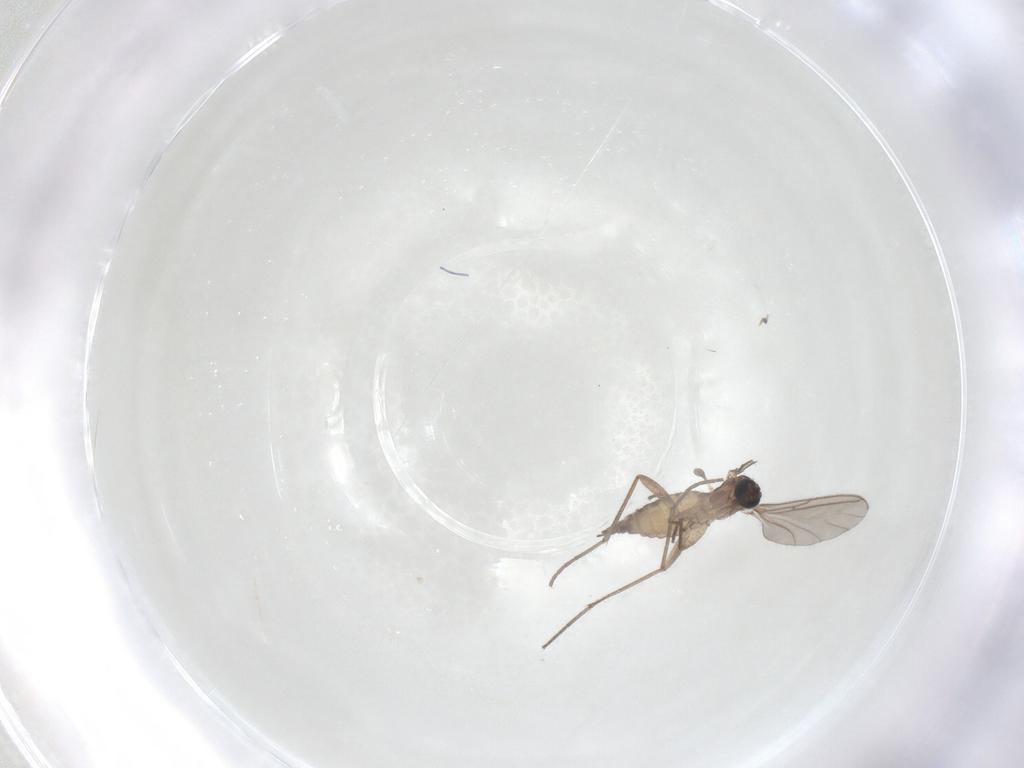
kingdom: Animalia
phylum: Arthropoda
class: Insecta
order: Diptera
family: Sciaridae
